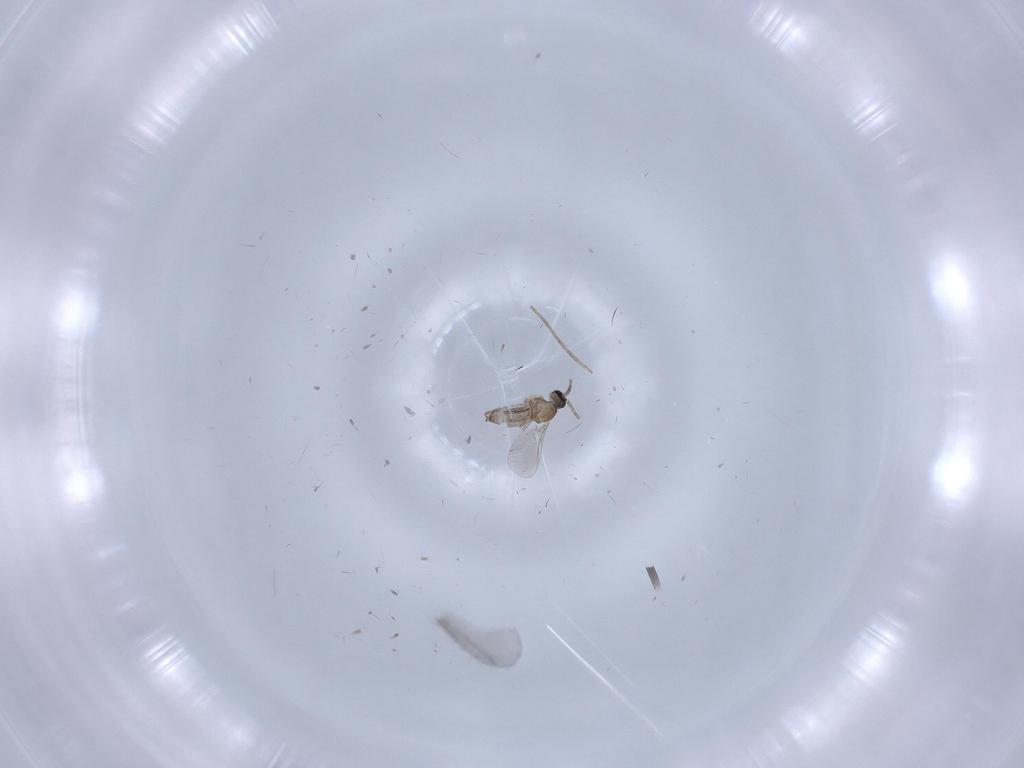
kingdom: Animalia
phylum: Arthropoda
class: Insecta
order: Diptera
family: Cecidomyiidae
